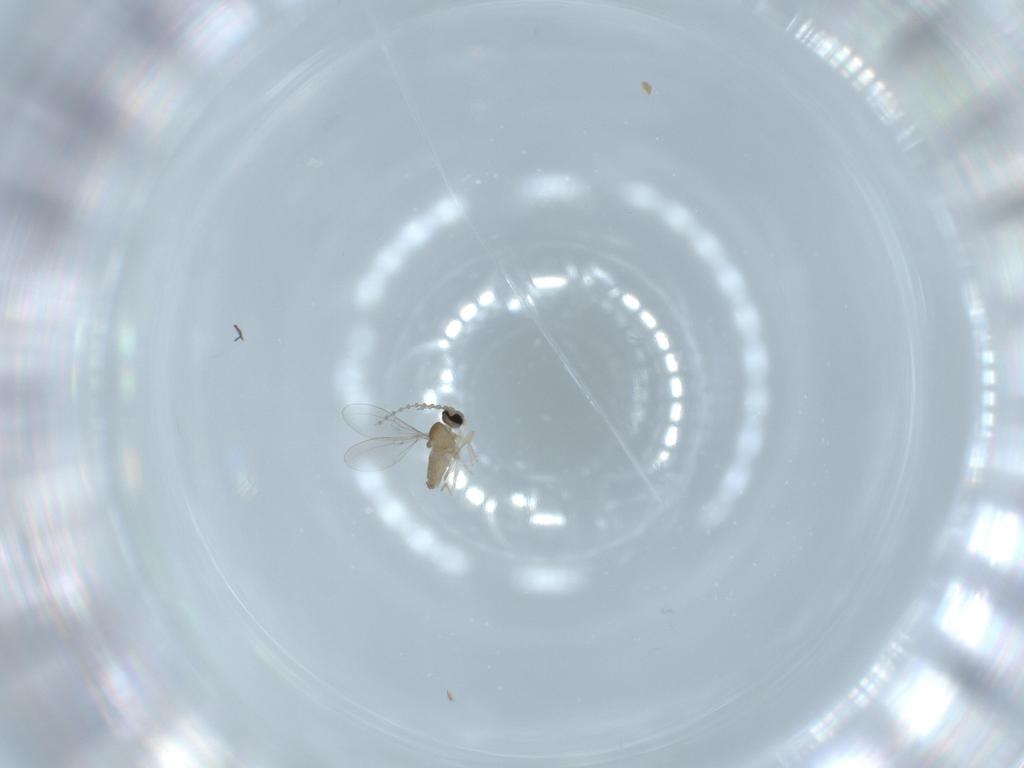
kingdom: Animalia
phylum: Arthropoda
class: Insecta
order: Diptera
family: Cecidomyiidae
